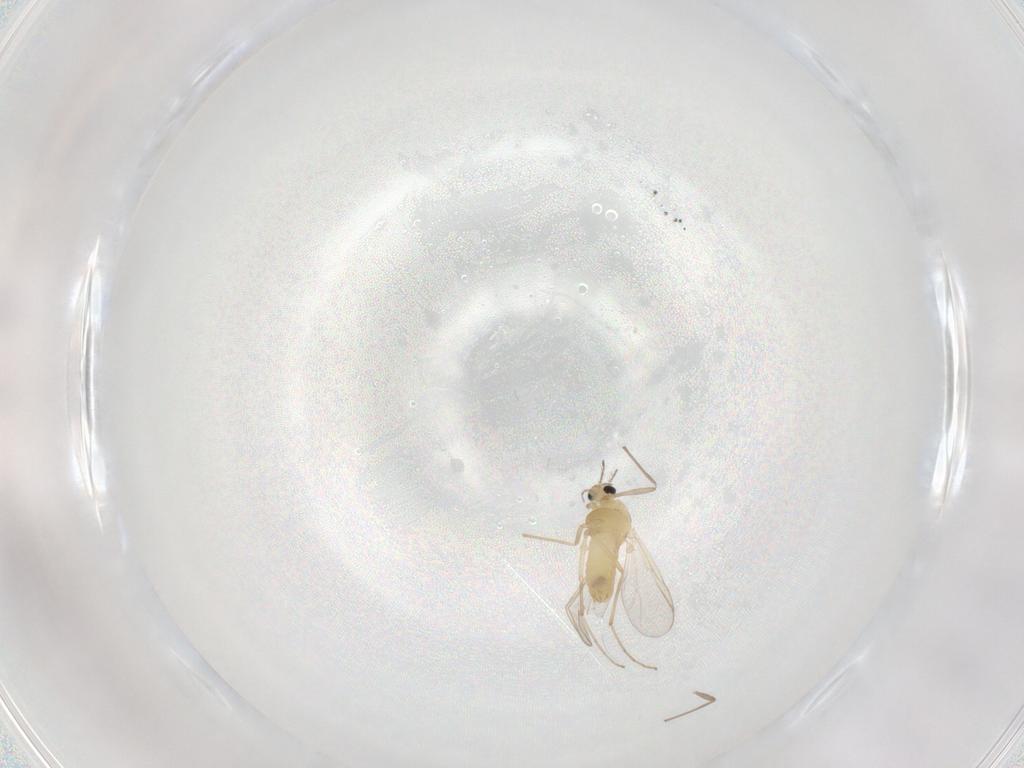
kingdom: Animalia
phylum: Arthropoda
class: Insecta
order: Diptera
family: Chironomidae
